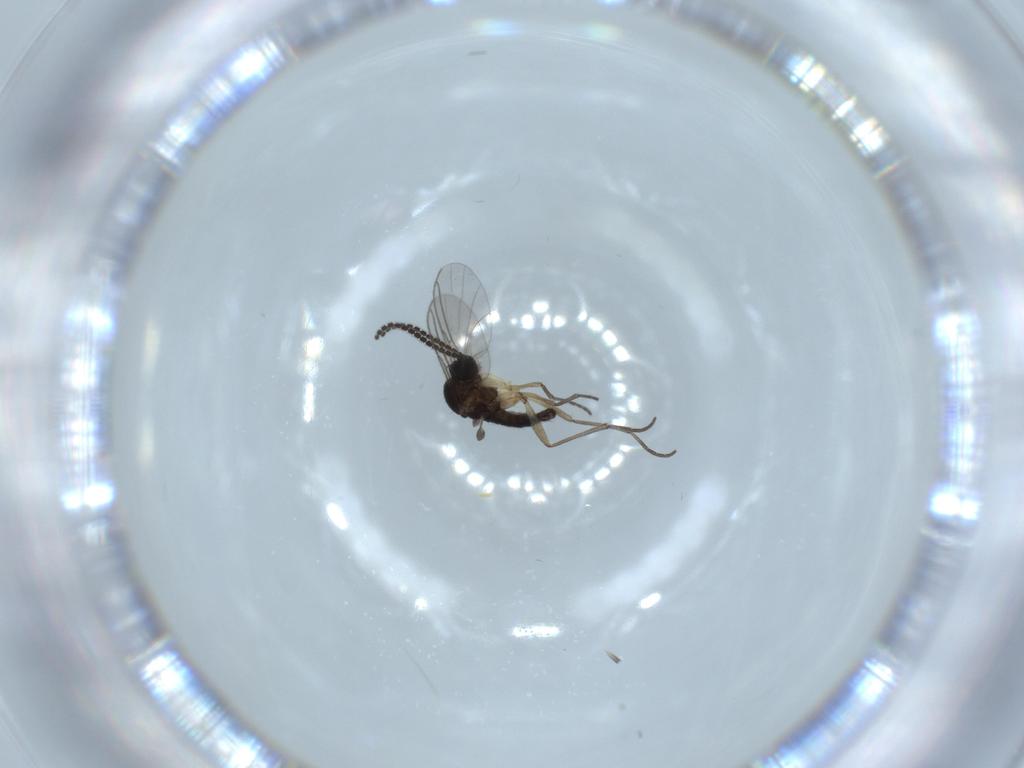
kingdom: Animalia
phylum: Arthropoda
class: Insecta
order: Diptera
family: Sciaridae
